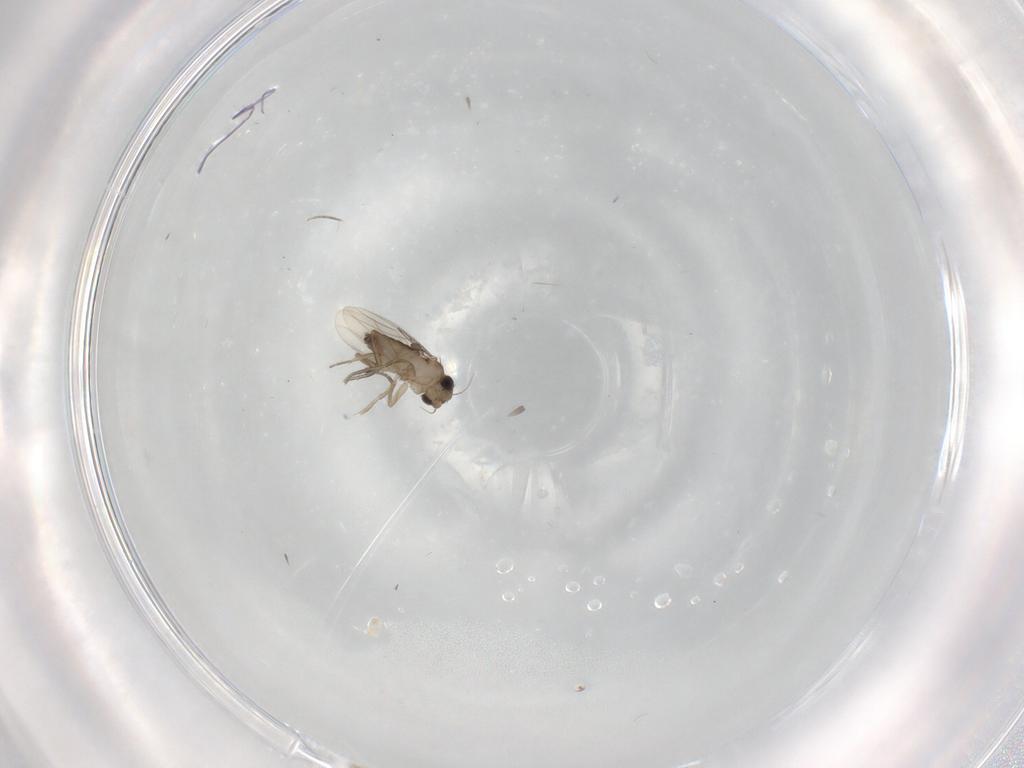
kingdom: Animalia
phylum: Arthropoda
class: Insecta
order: Diptera
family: Phoridae
